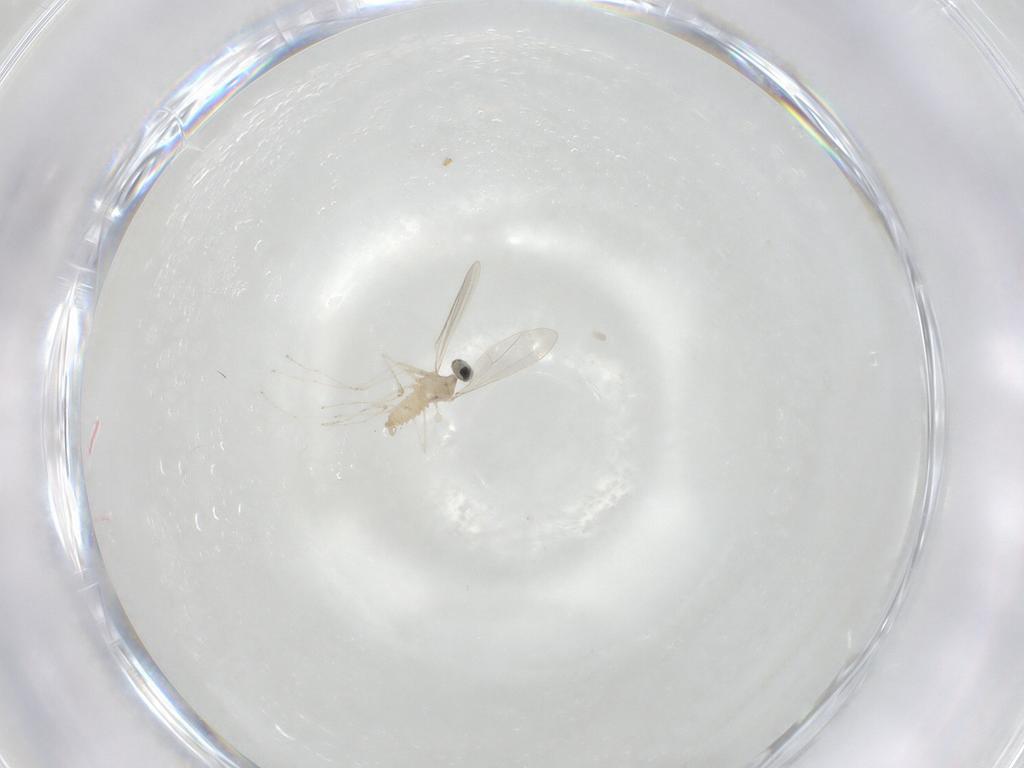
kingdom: Animalia
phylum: Arthropoda
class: Insecta
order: Diptera
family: Cecidomyiidae
